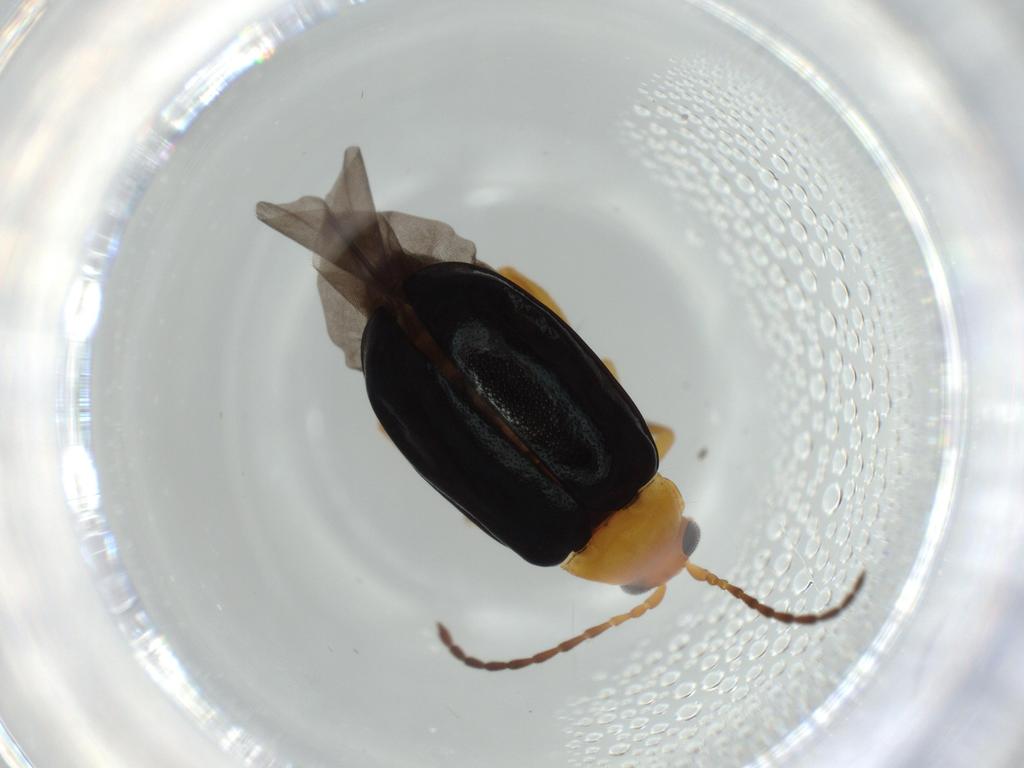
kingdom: Animalia
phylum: Arthropoda
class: Insecta
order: Coleoptera
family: Chrysomelidae
